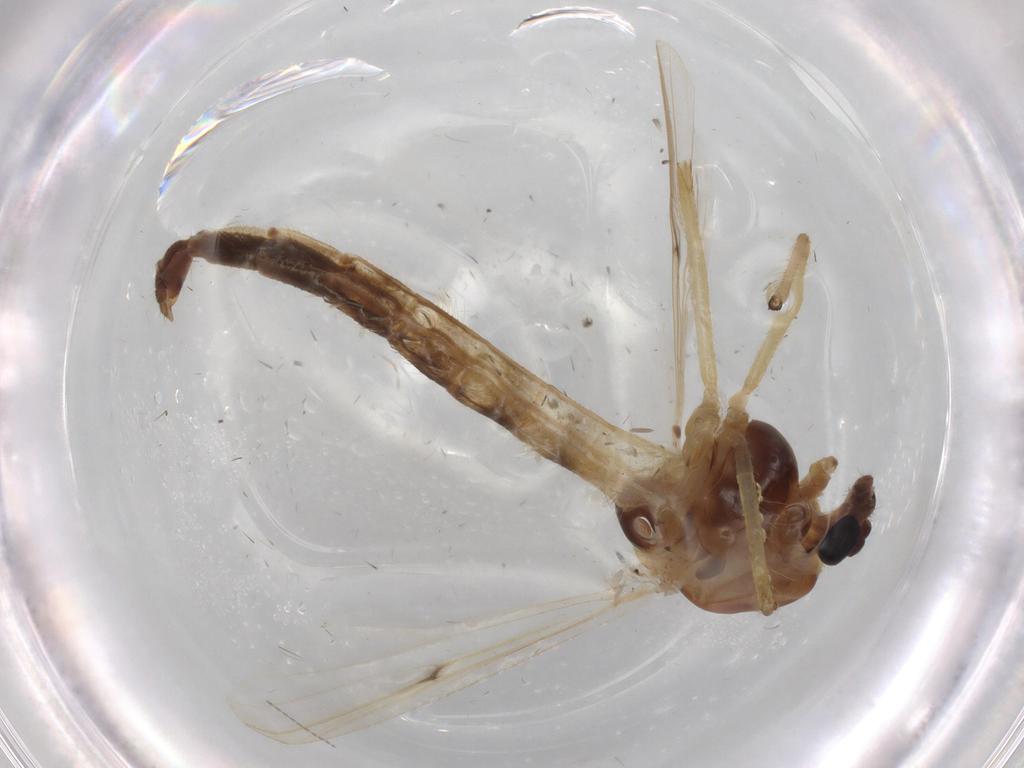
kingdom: Animalia
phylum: Arthropoda
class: Insecta
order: Diptera
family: Chironomidae
